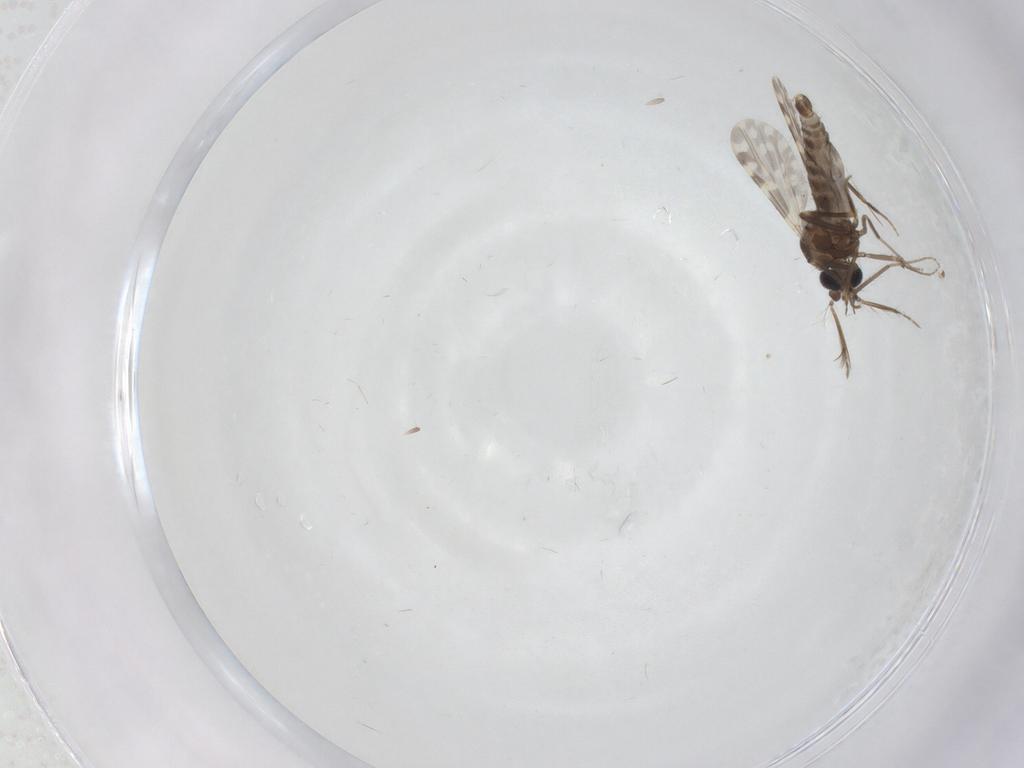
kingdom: Animalia
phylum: Arthropoda
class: Insecta
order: Diptera
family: Ceratopogonidae
